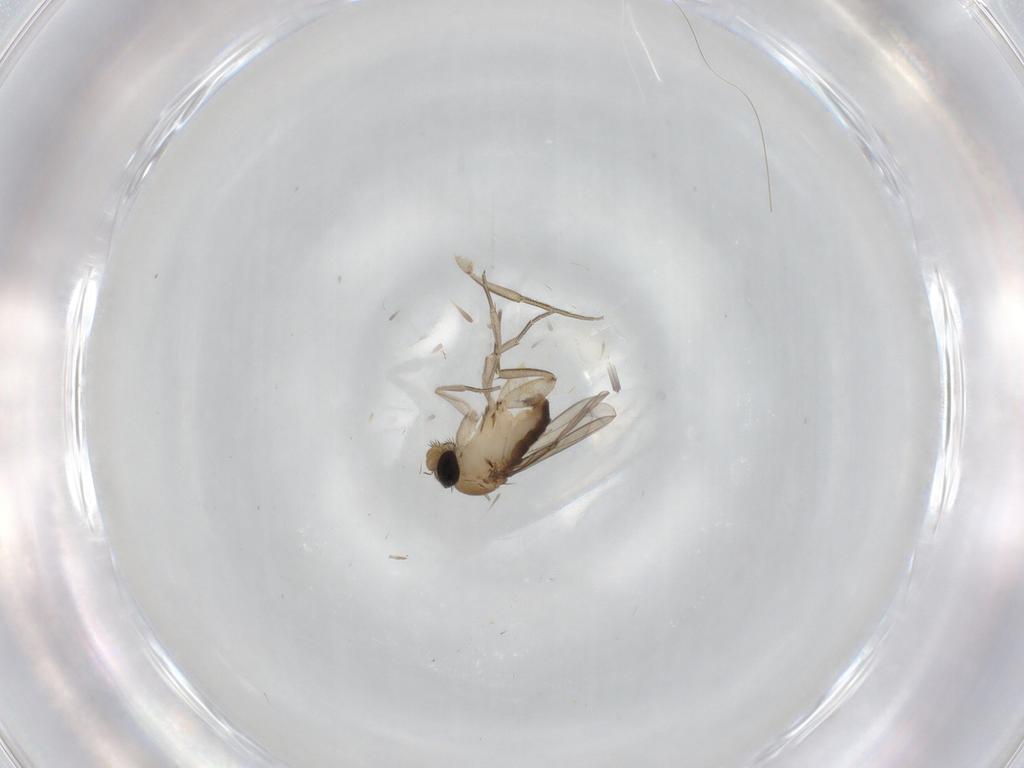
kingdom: Animalia
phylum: Arthropoda
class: Insecta
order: Diptera
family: Phoridae
